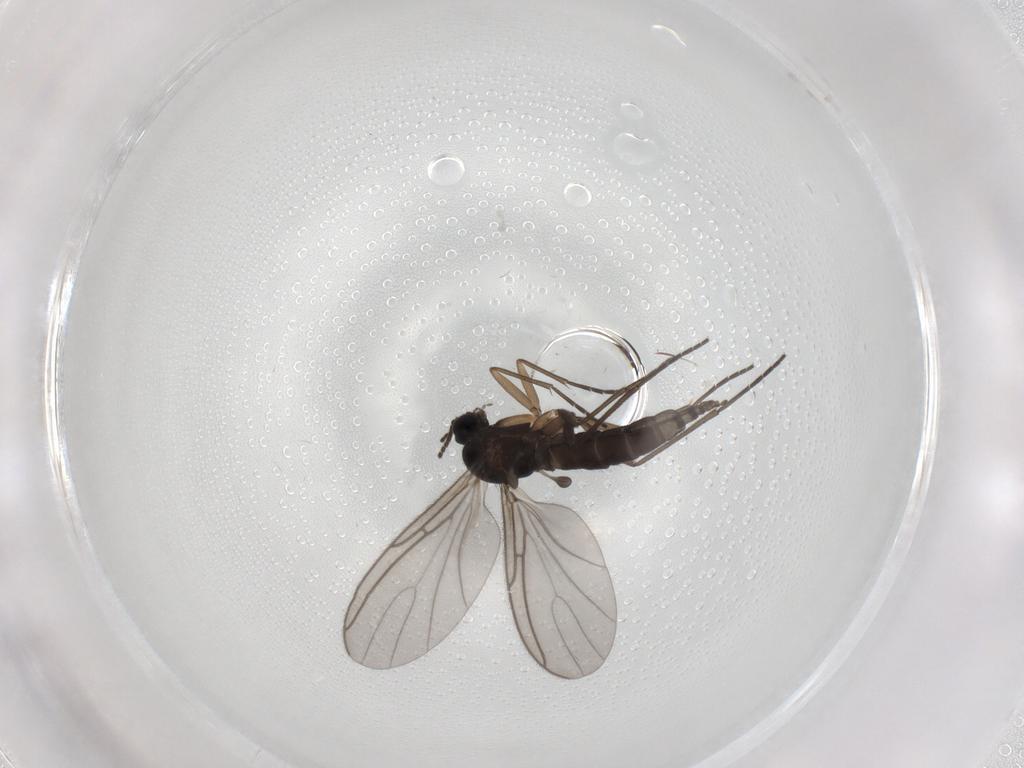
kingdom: Animalia
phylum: Arthropoda
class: Insecta
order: Diptera
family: Sciaridae
